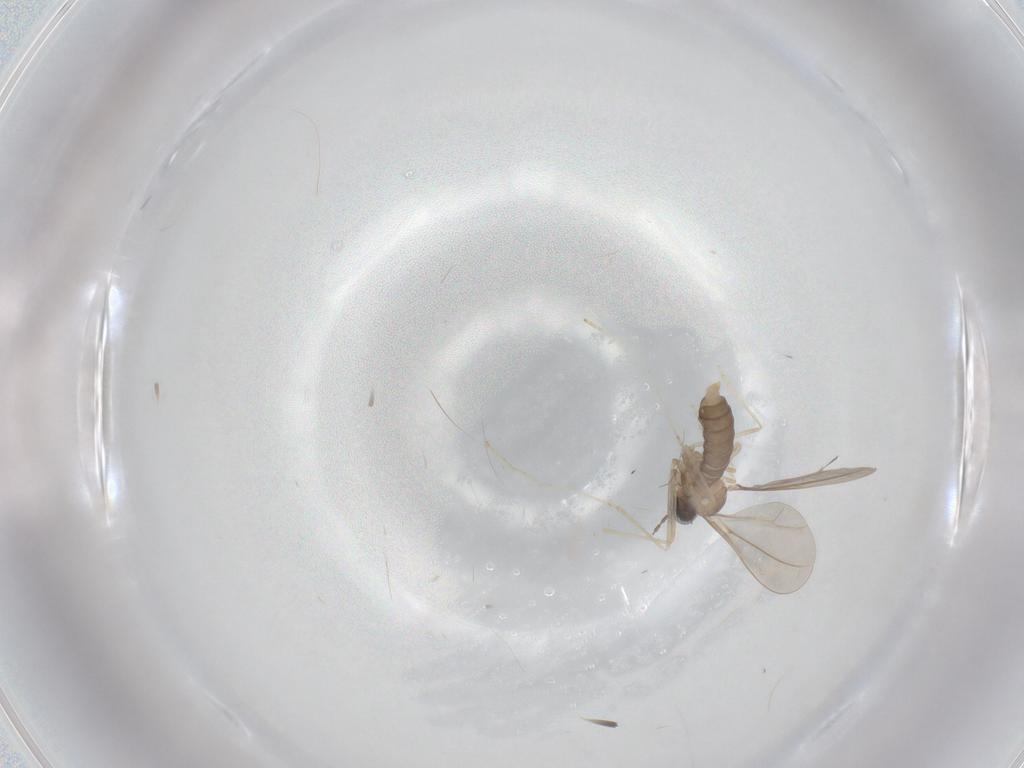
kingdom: Animalia
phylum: Arthropoda
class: Insecta
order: Diptera
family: Cecidomyiidae
